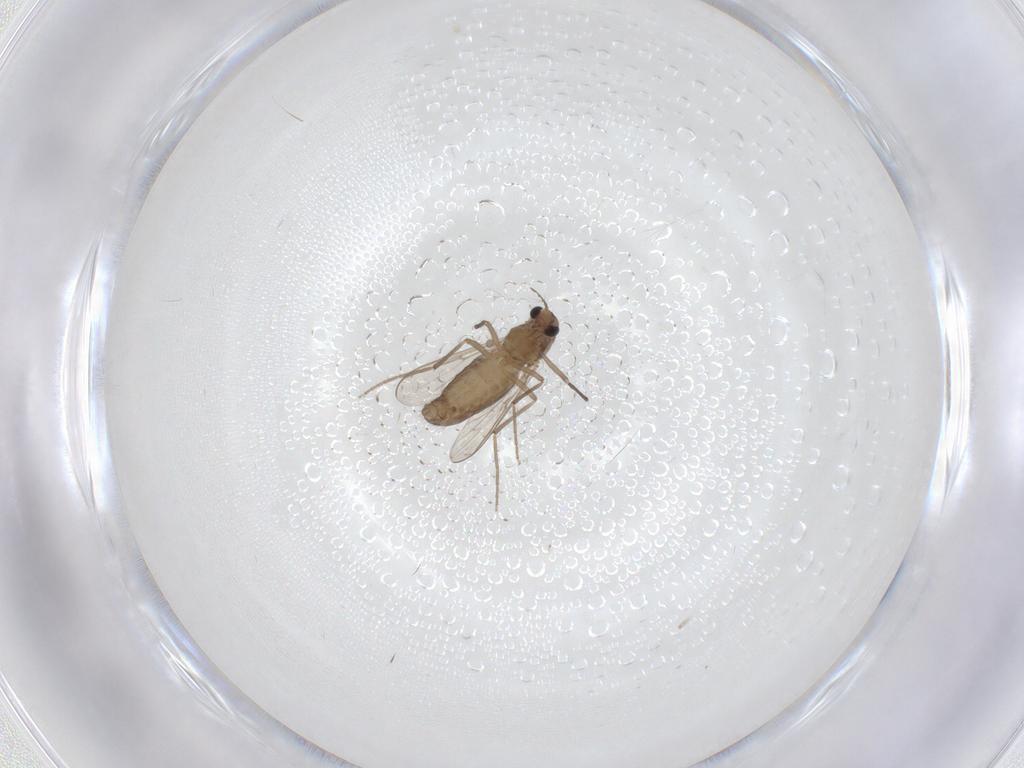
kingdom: Animalia
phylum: Arthropoda
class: Insecta
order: Diptera
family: Chironomidae
